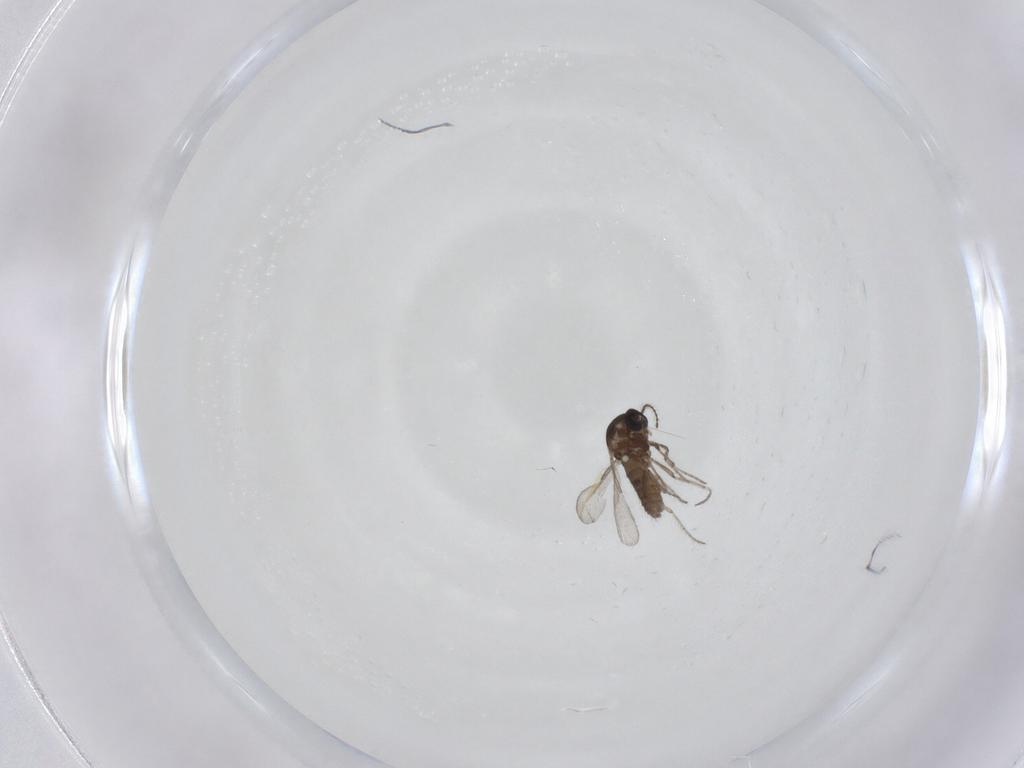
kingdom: Animalia
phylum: Arthropoda
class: Insecta
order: Diptera
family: Ceratopogonidae
